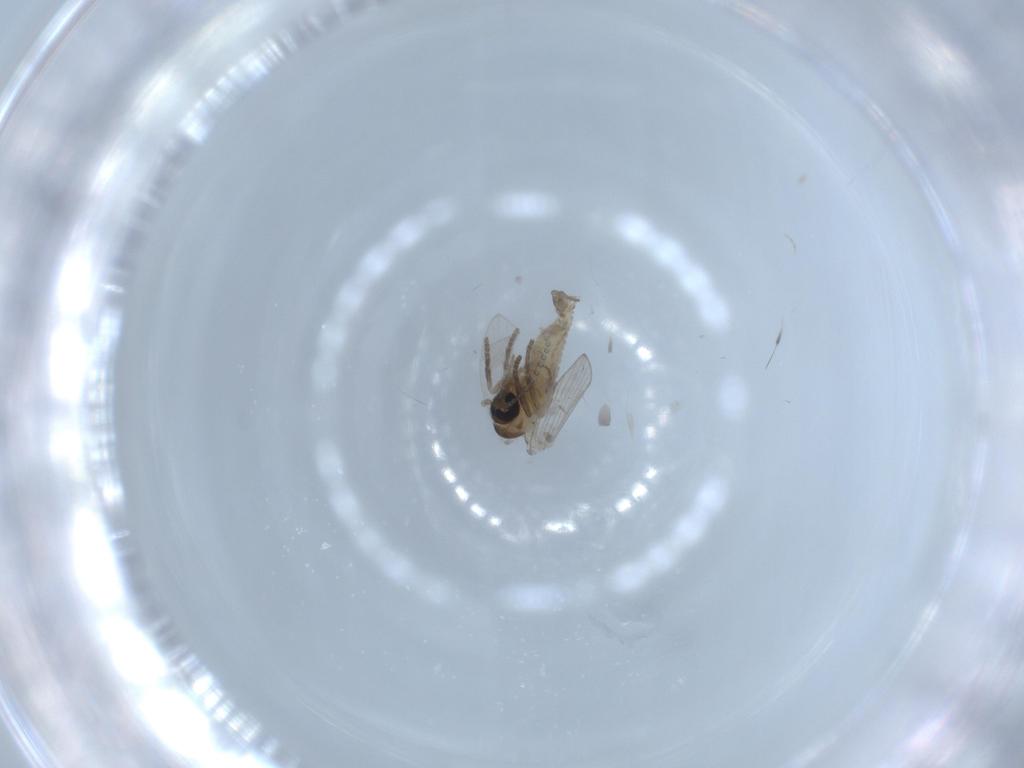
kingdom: Animalia
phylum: Arthropoda
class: Insecta
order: Diptera
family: Psychodidae
